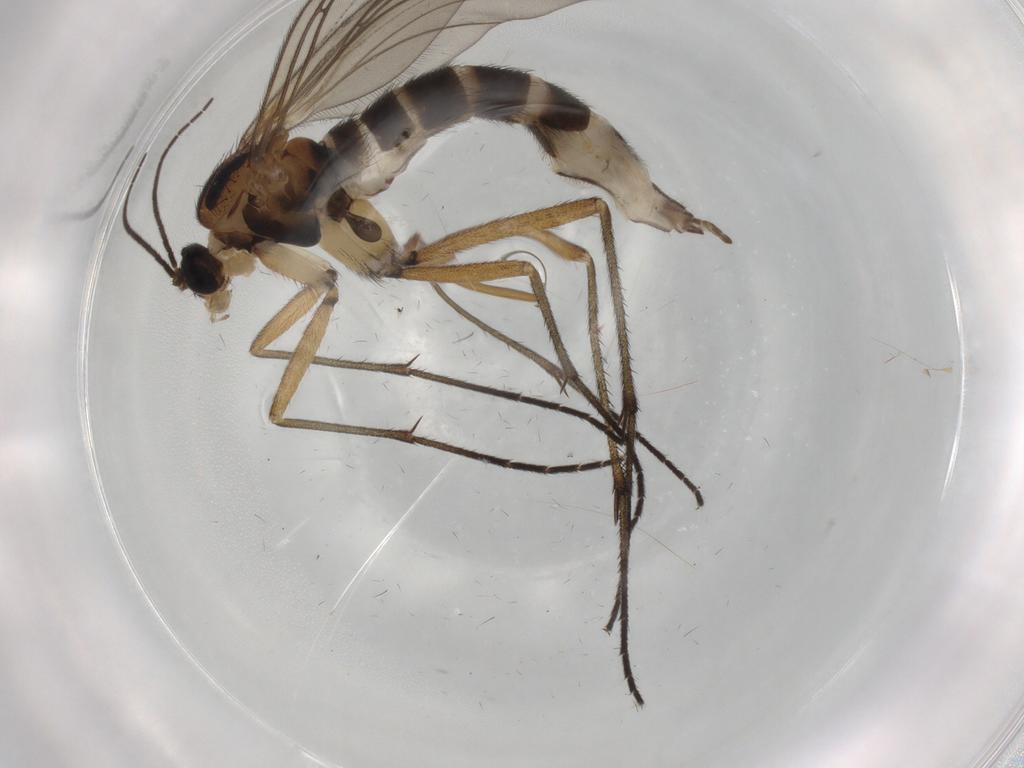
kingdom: Animalia
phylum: Arthropoda
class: Insecta
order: Diptera
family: Sciaridae
